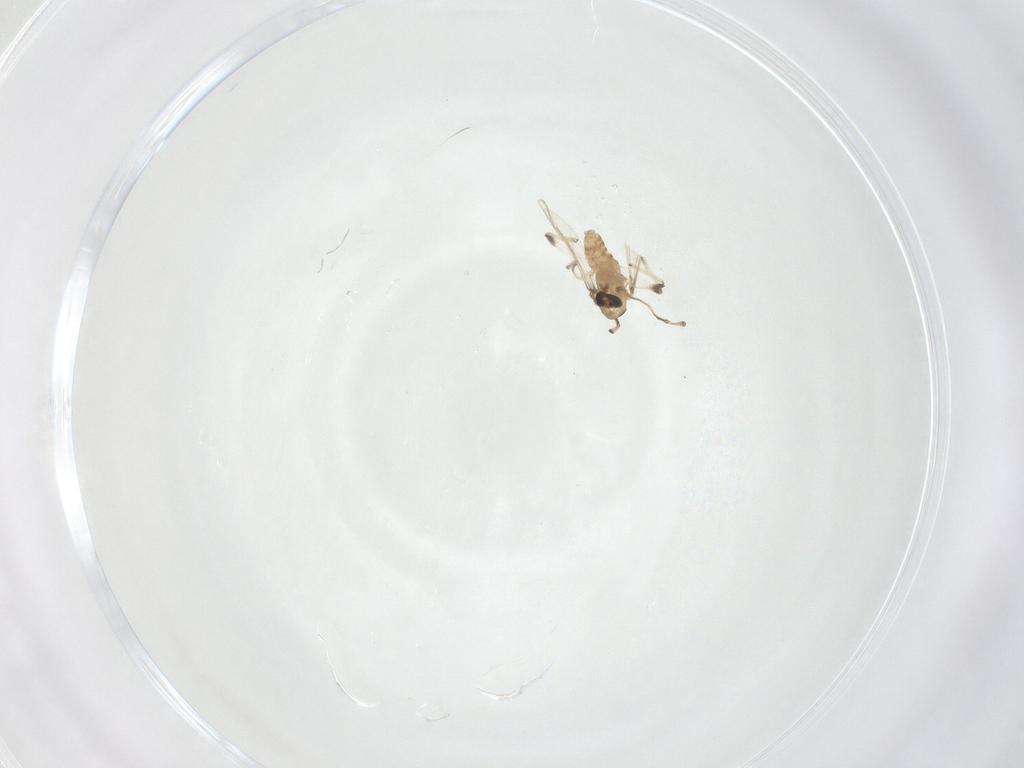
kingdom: Animalia
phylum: Arthropoda
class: Insecta
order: Diptera
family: Chironomidae
